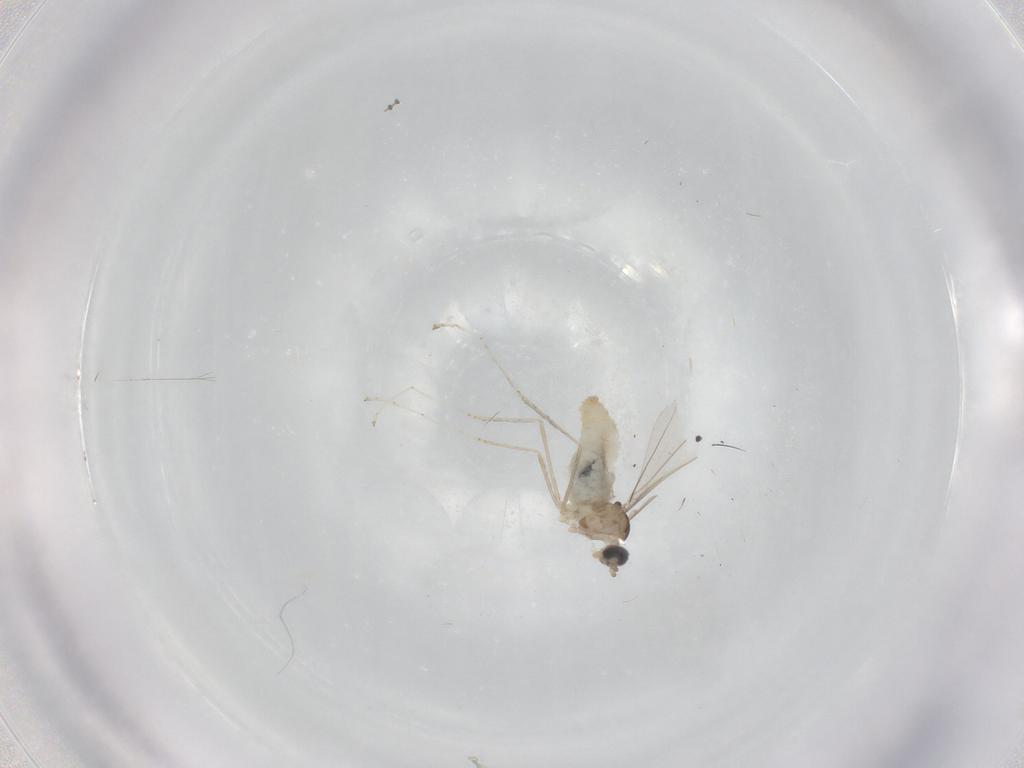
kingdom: Animalia
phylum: Arthropoda
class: Insecta
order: Diptera
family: Cecidomyiidae
